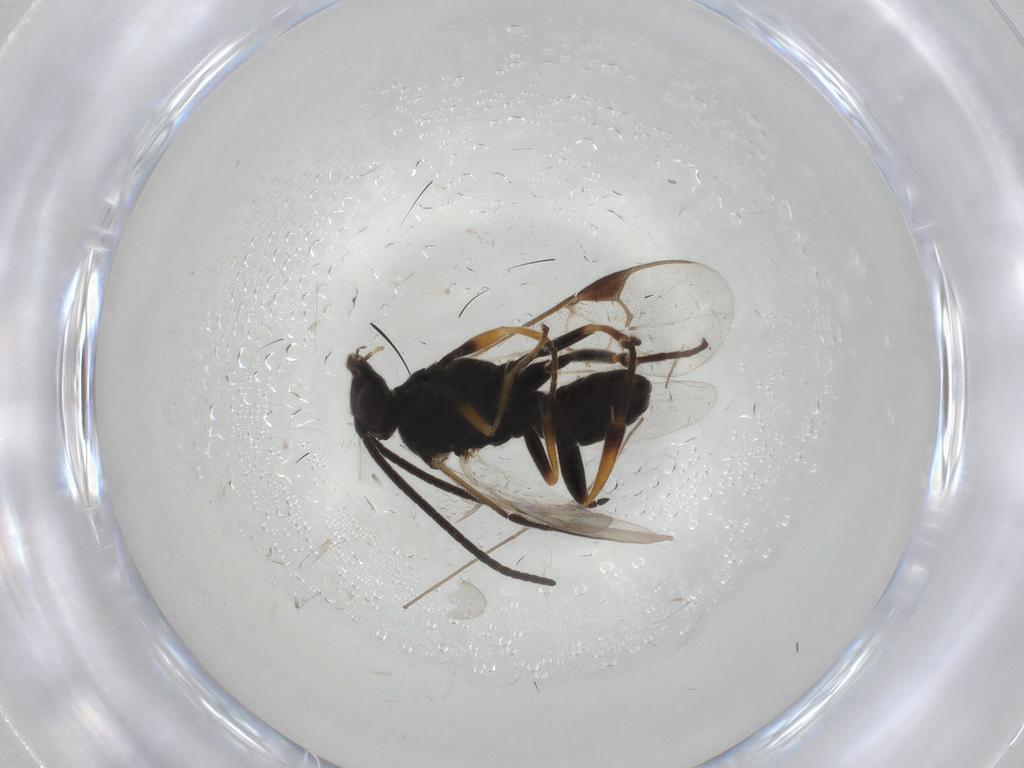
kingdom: Animalia
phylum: Arthropoda
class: Insecta
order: Hymenoptera
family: Braconidae
